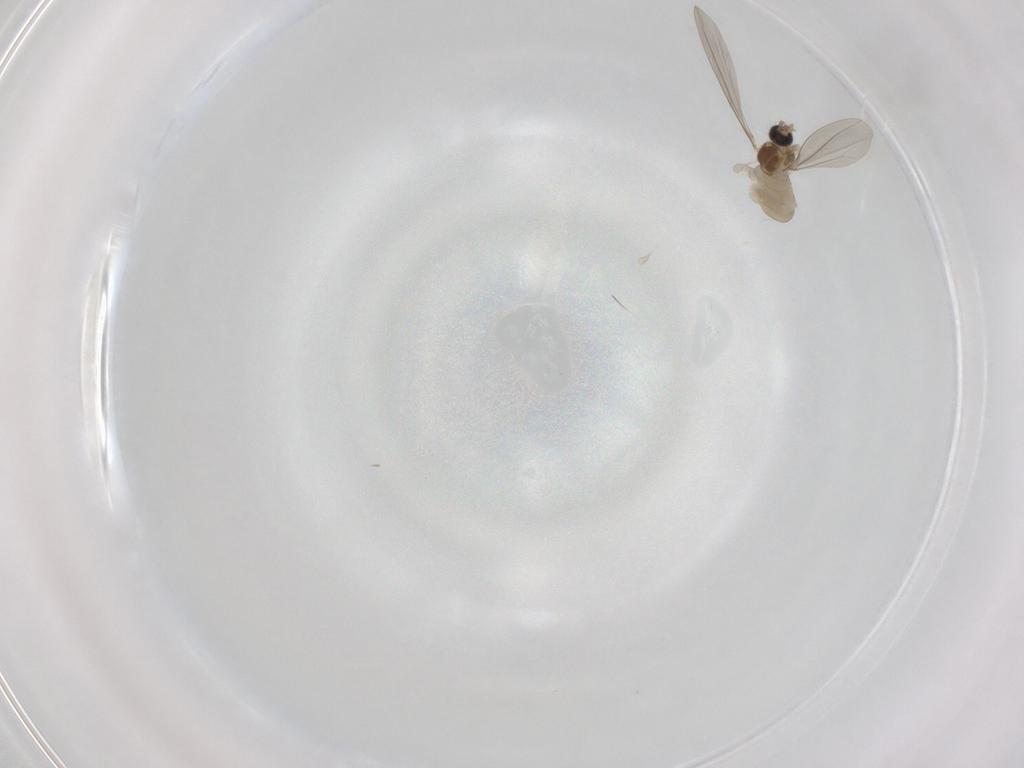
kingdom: Animalia
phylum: Arthropoda
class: Insecta
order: Diptera
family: Cecidomyiidae
